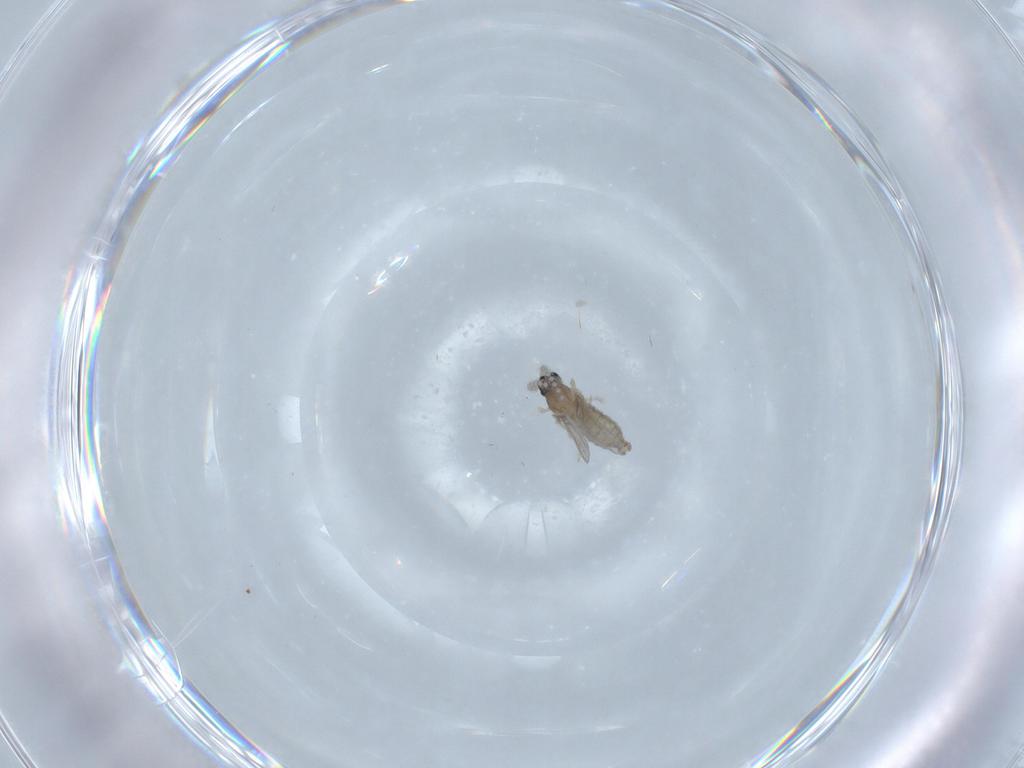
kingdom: Animalia
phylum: Arthropoda
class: Insecta
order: Diptera
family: Cecidomyiidae
